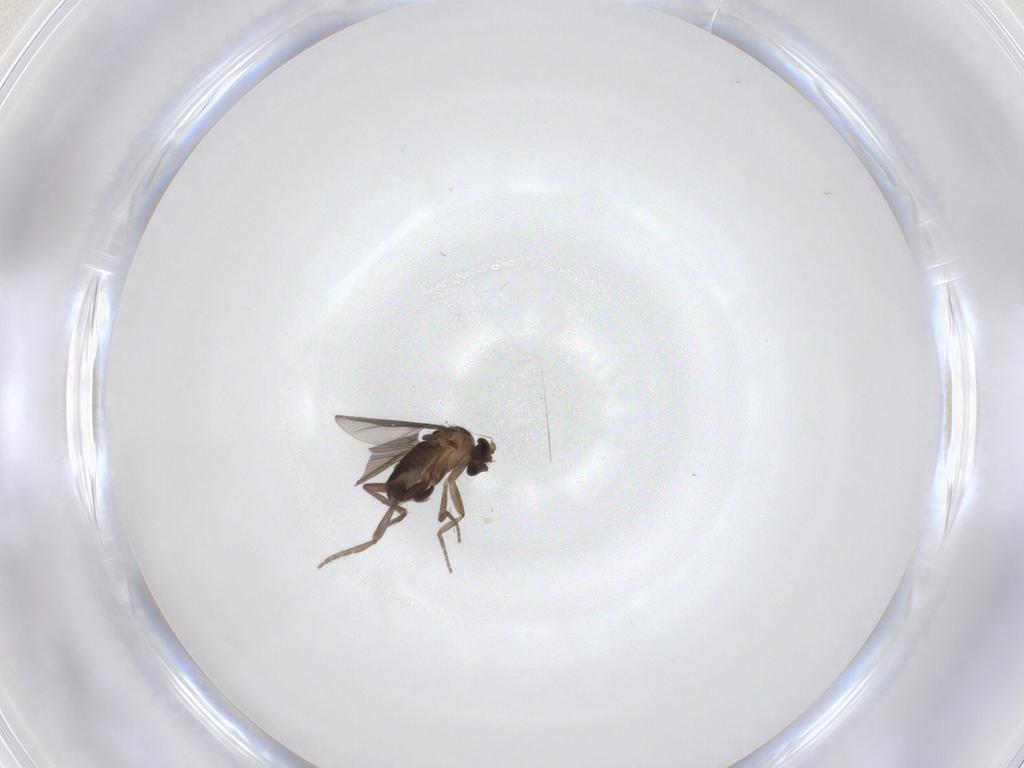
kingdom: Animalia
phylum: Arthropoda
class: Insecta
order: Diptera
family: Phoridae
